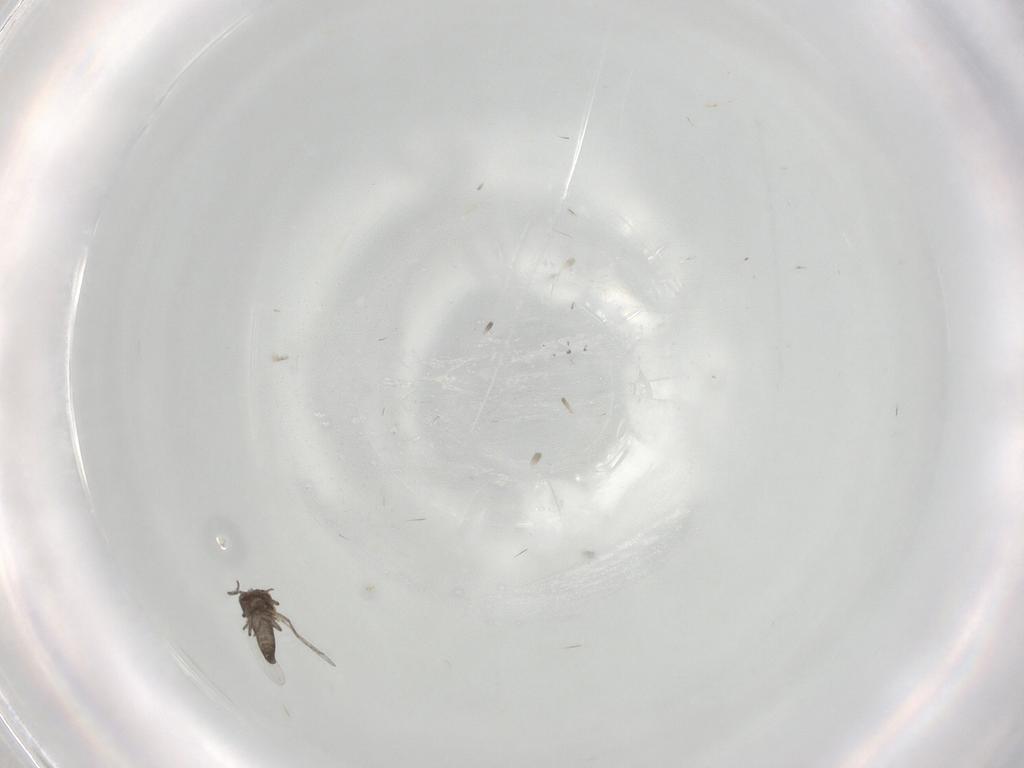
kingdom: Animalia
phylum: Arthropoda
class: Insecta
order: Diptera
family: Ceratopogonidae
